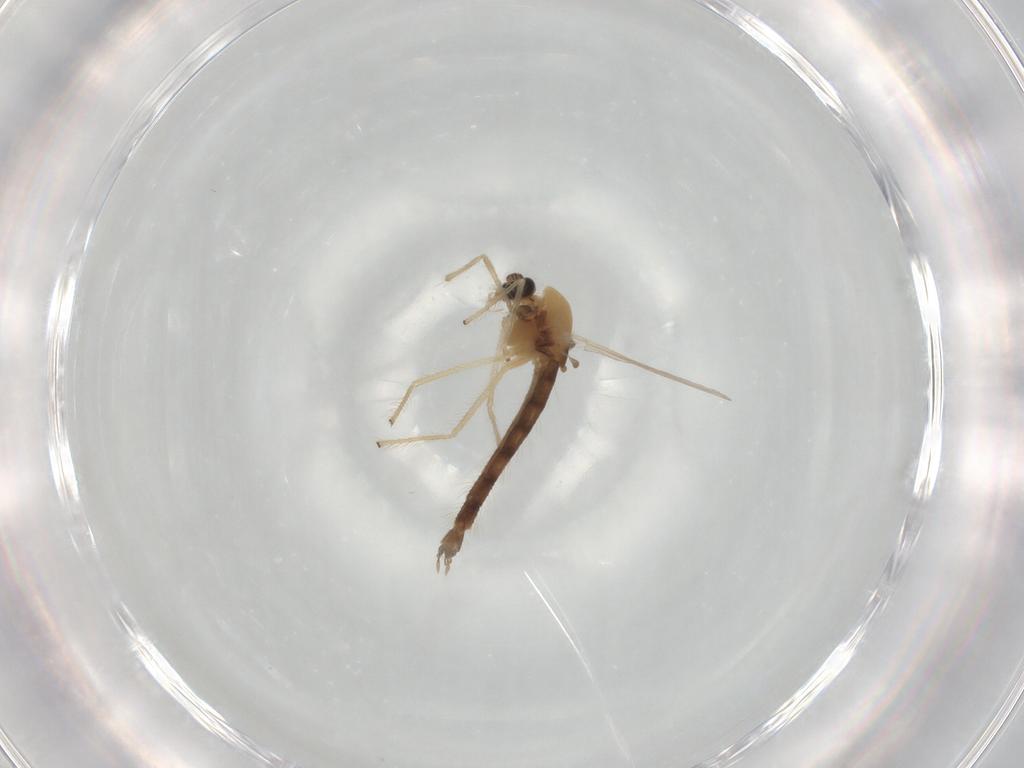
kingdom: Animalia
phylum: Arthropoda
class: Insecta
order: Diptera
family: Chironomidae
